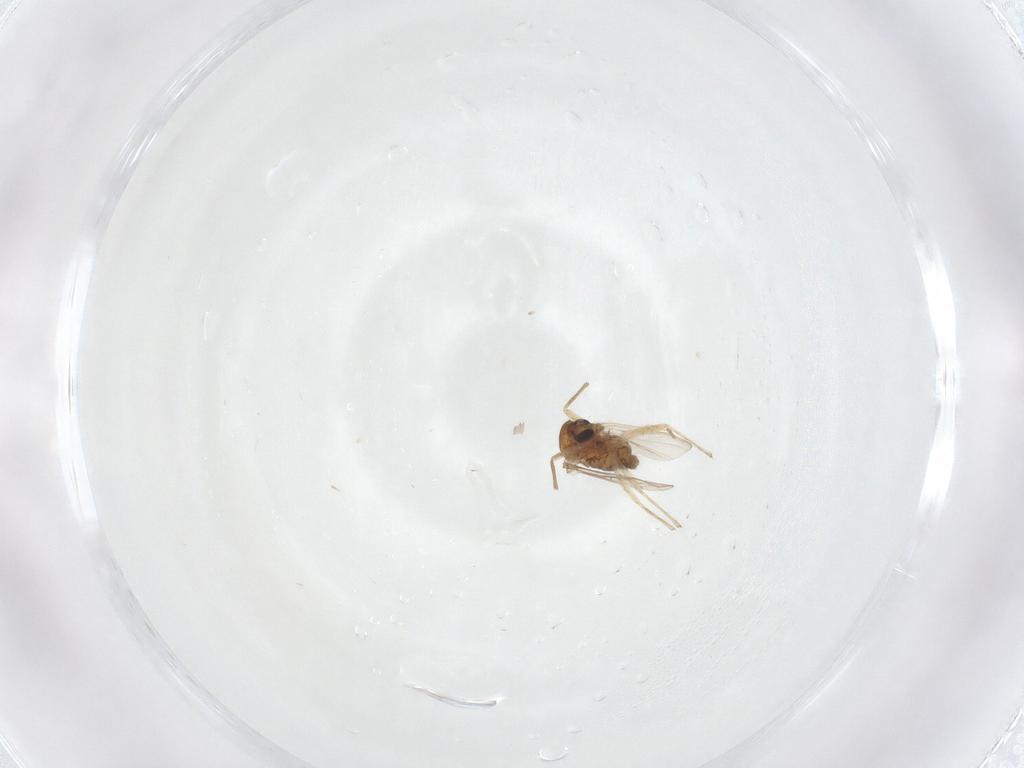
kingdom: Animalia
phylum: Arthropoda
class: Insecta
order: Diptera
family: Chironomidae
